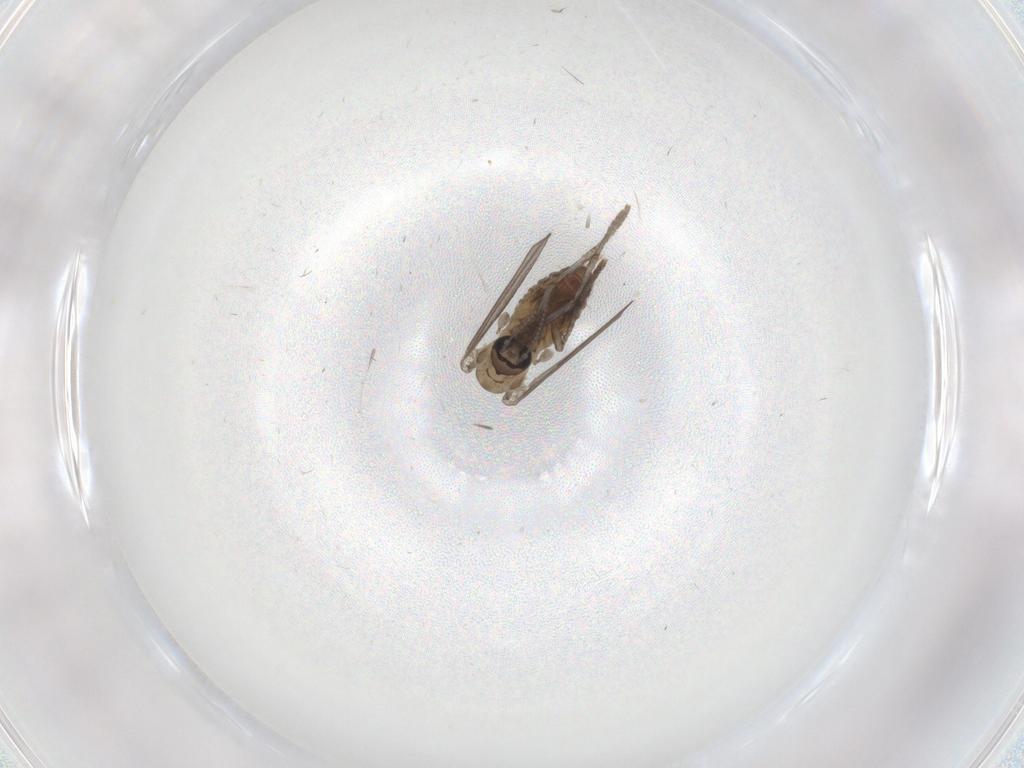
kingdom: Animalia
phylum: Arthropoda
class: Insecta
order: Diptera
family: Psychodidae
